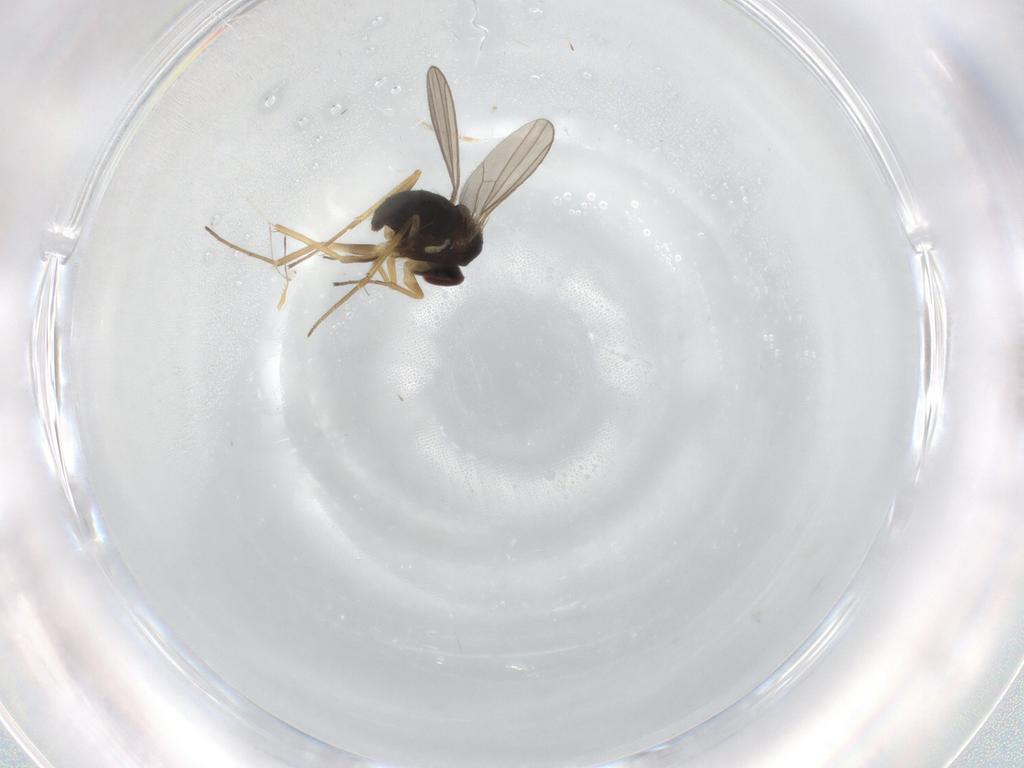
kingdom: Animalia
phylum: Arthropoda
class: Insecta
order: Diptera
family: Dolichopodidae
